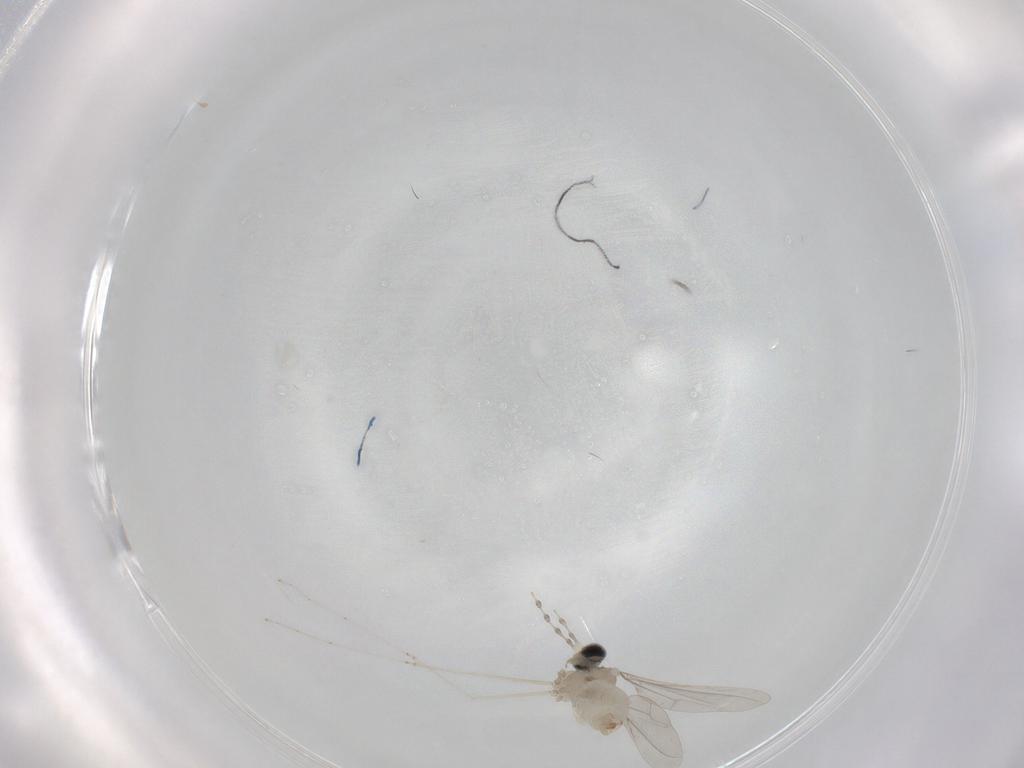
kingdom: Animalia
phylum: Arthropoda
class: Insecta
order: Diptera
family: Cecidomyiidae
